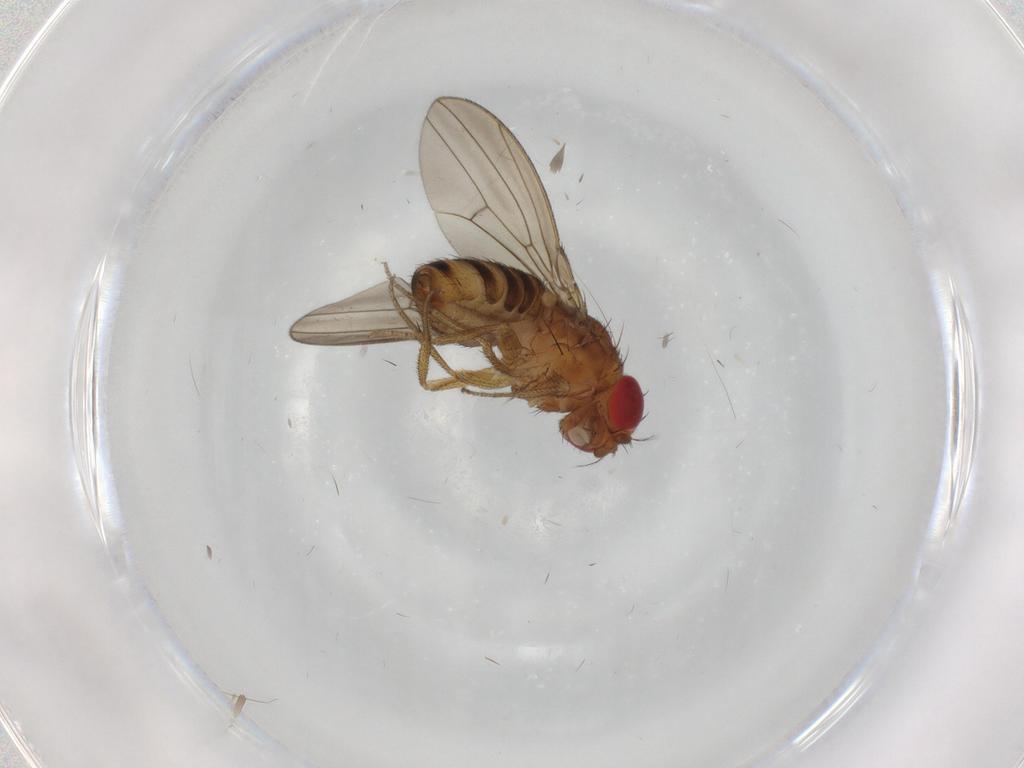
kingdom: Animalia
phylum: Arthropoda
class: Insecta
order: Diptera
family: Drosophilidae
